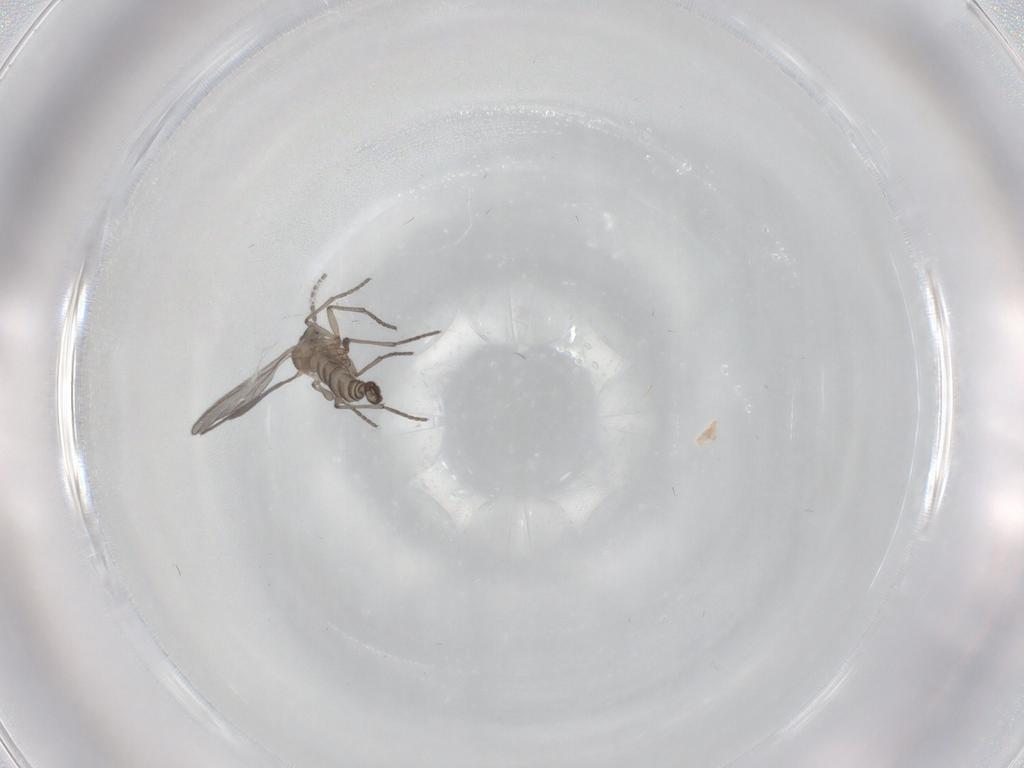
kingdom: Animalia
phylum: Arthropoda
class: Insecta
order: Diptera
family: Sciaridae
